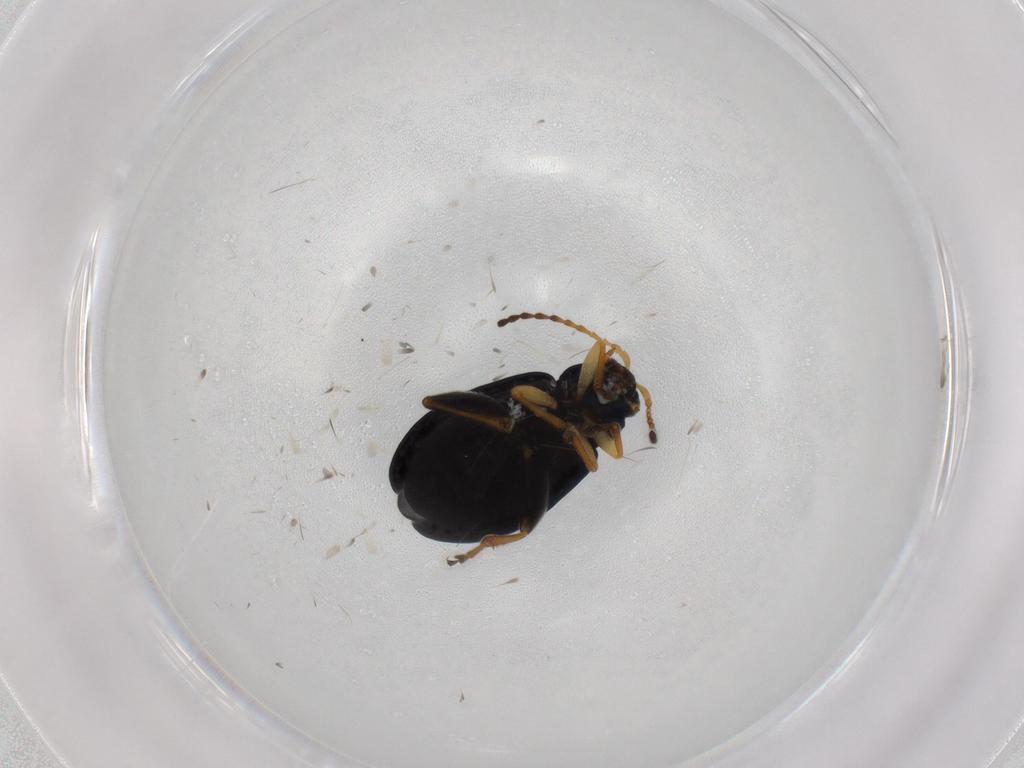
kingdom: Animalia
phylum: Arthropoda
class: Insecta
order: Coleoptera
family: Chrysomelidae
